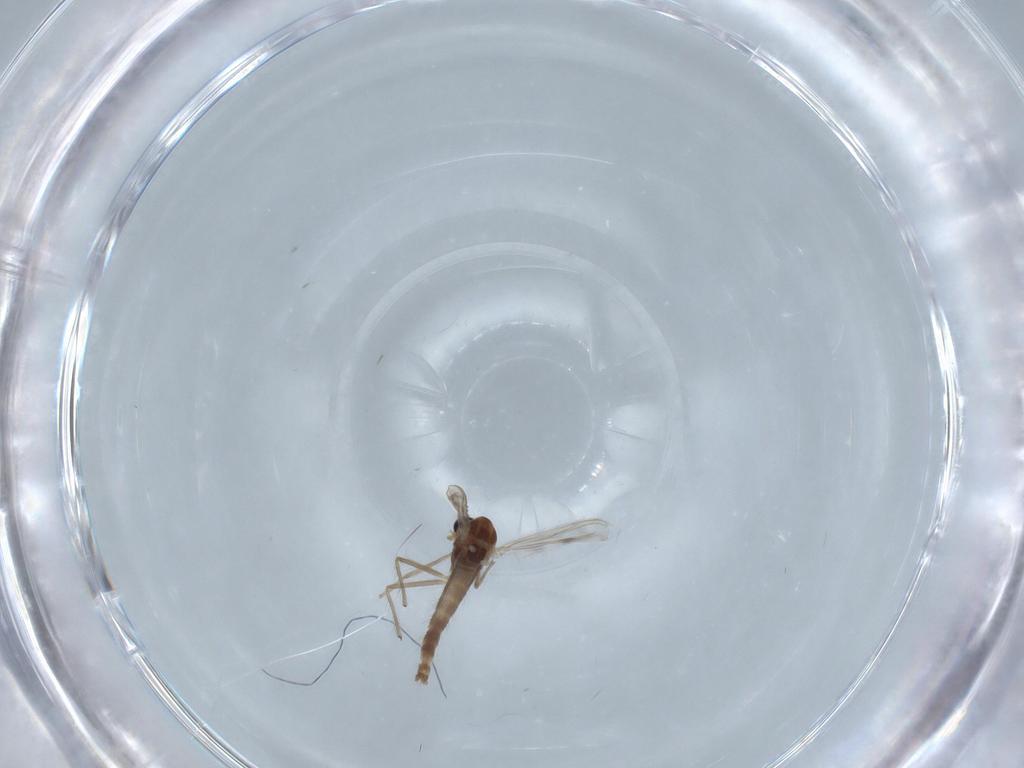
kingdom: Animalia
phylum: Arthropoda
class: Insecta
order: Diptera
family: Chironomidae
